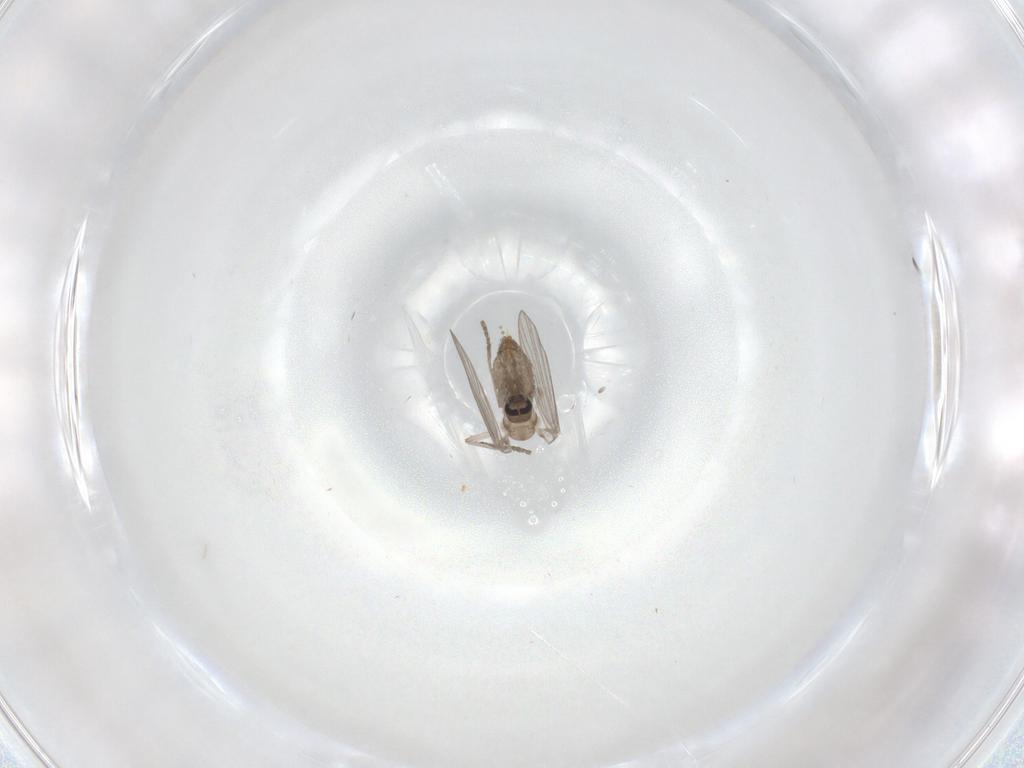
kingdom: Animalia
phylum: Arthropoda
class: Insecta
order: Diptera
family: Psychodidae
